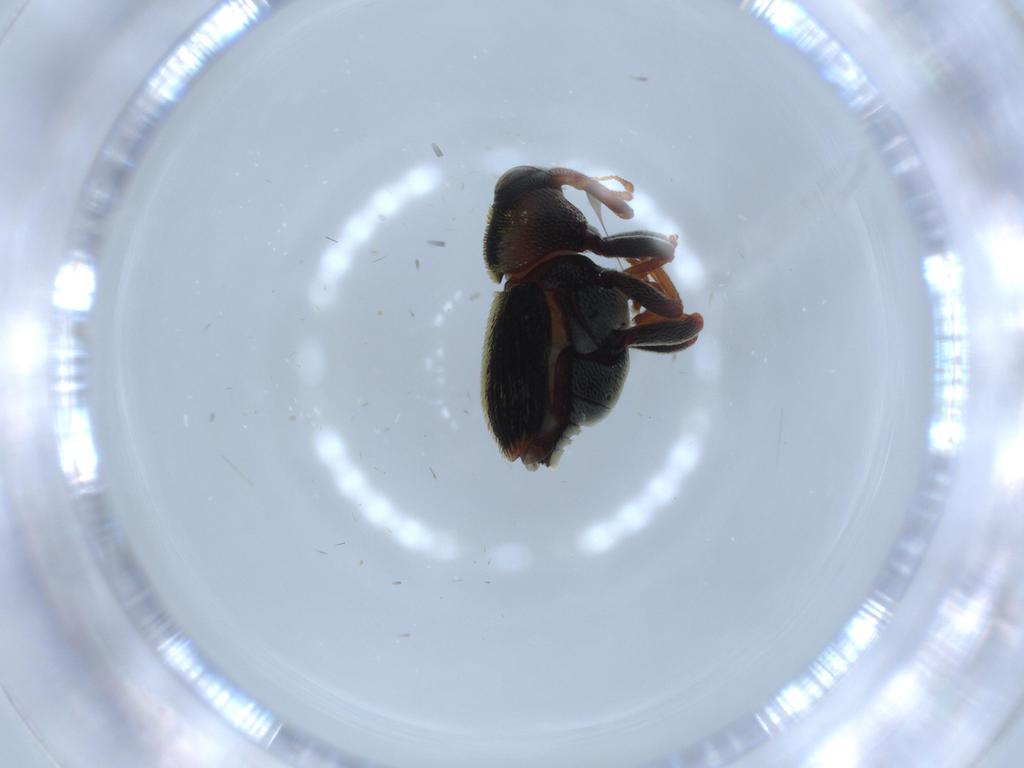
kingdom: Animalia
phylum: Arthropoda
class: Insecta
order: Coleoptera
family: Curculionidae
